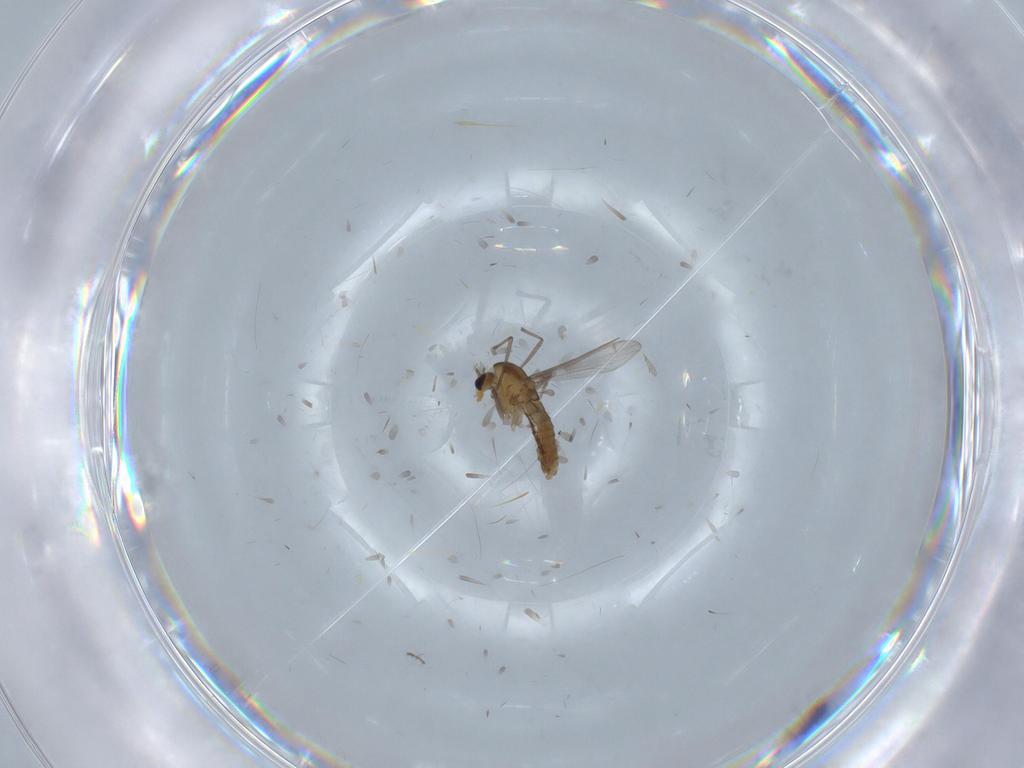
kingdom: Animalia
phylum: Arthropoda
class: Insecta
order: Diptera
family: Chironomidae
